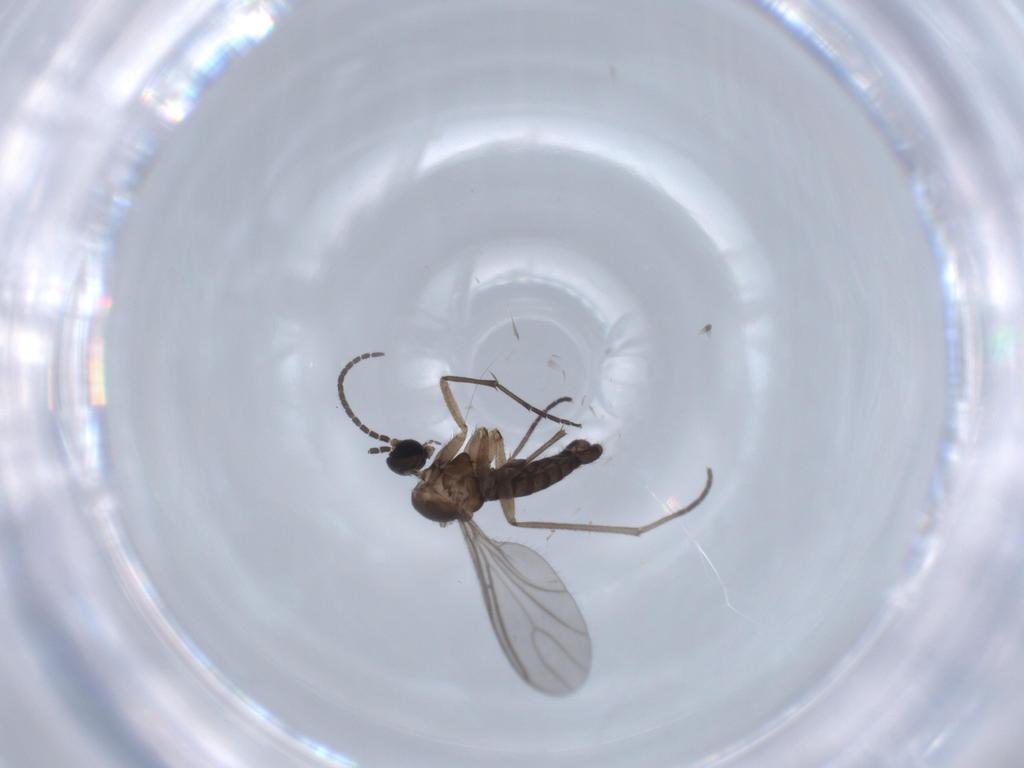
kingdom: Animalia
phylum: Arthropoda
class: Insecta
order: Diptera
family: Sciaridae
